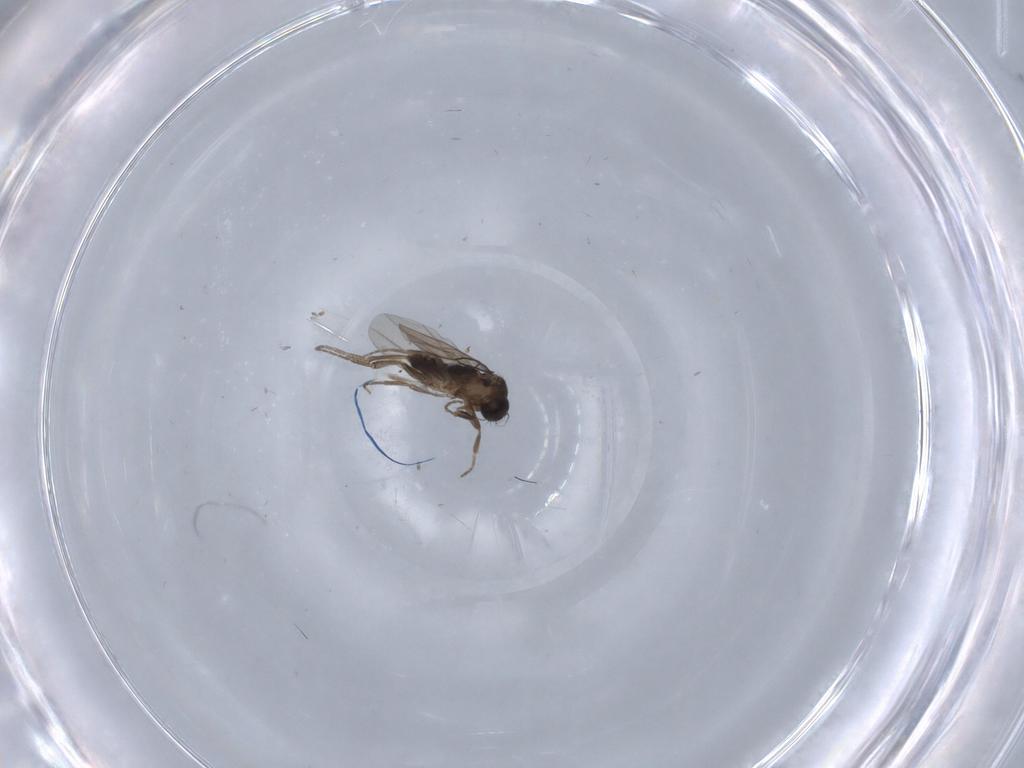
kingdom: Animalia
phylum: Arthropoda
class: Insecta
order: Diptera
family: Phoridae
